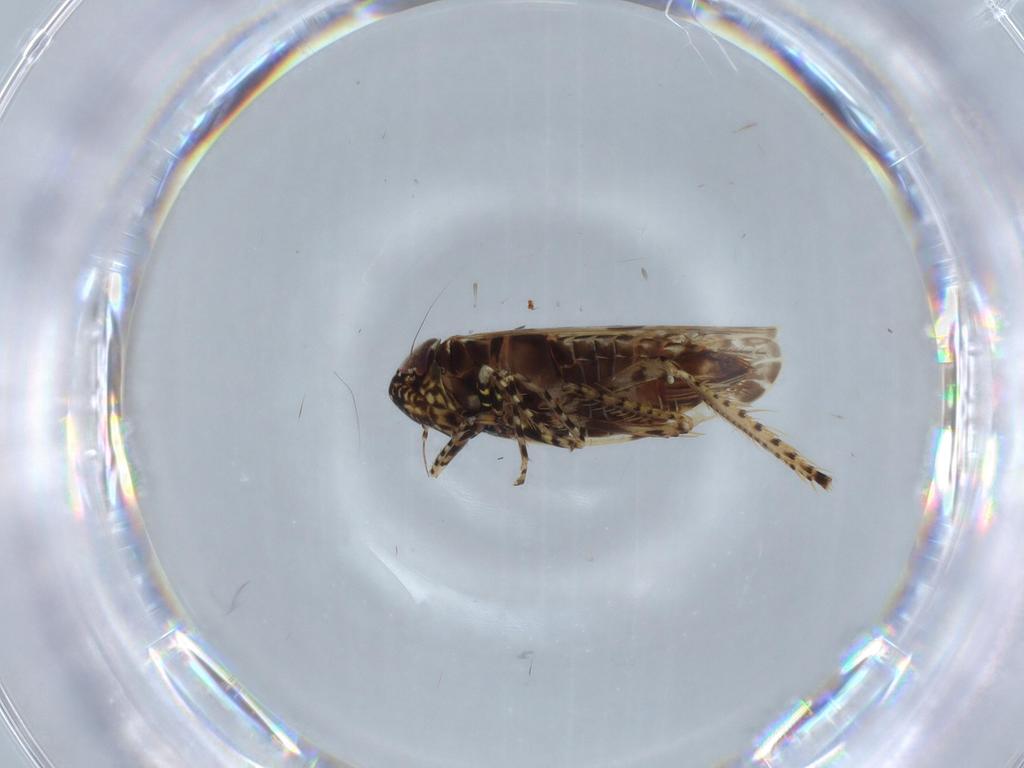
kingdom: Animalia
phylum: Arthropoda
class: Insecta
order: Hemiptera
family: Cicadellidae
